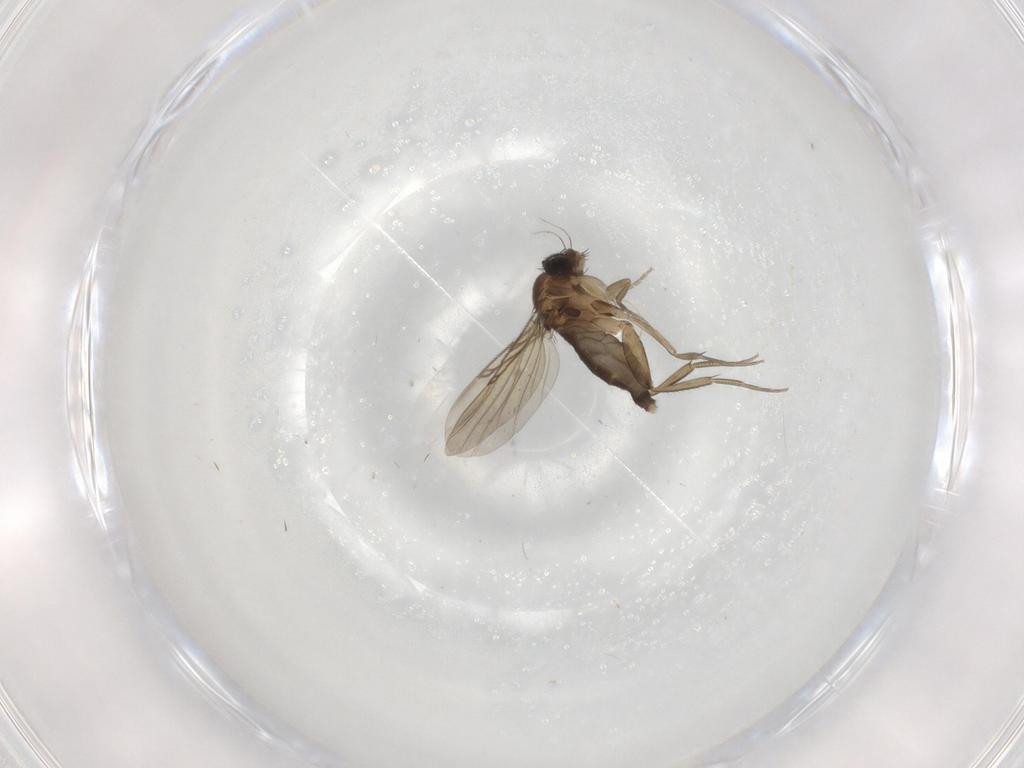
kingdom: Animalia
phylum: Arthropoda
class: Insecta
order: Diptera
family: Phoridae
